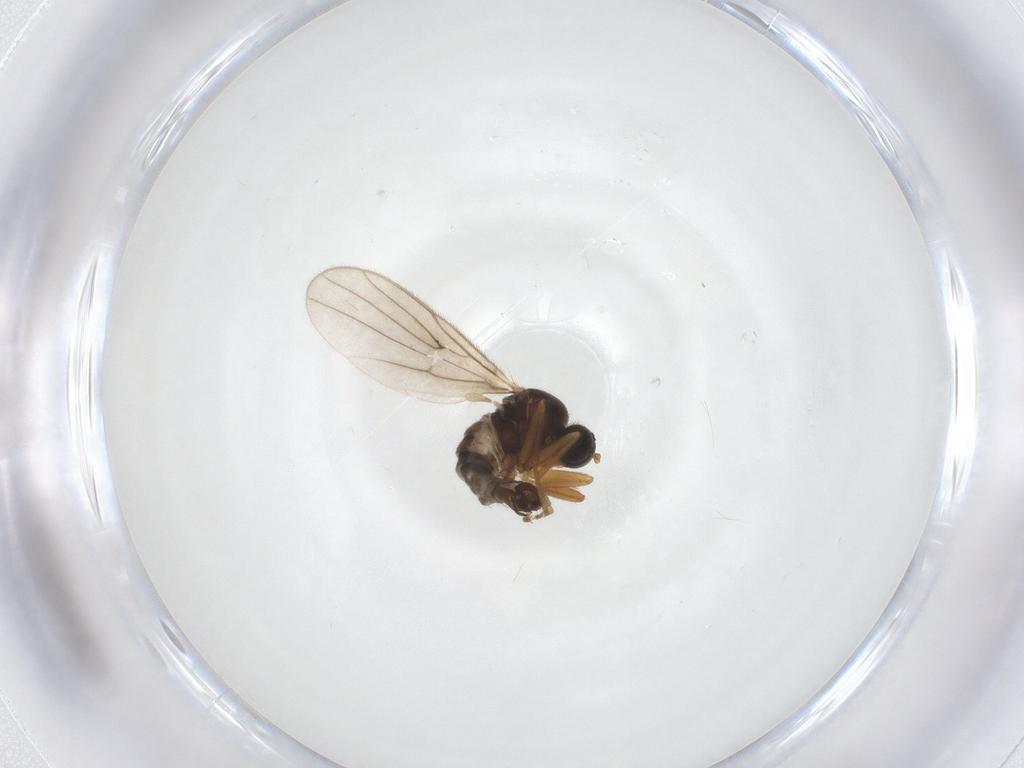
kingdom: Animalia
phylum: Arthropoda
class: Insecta
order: Diptera
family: Hybotidae
